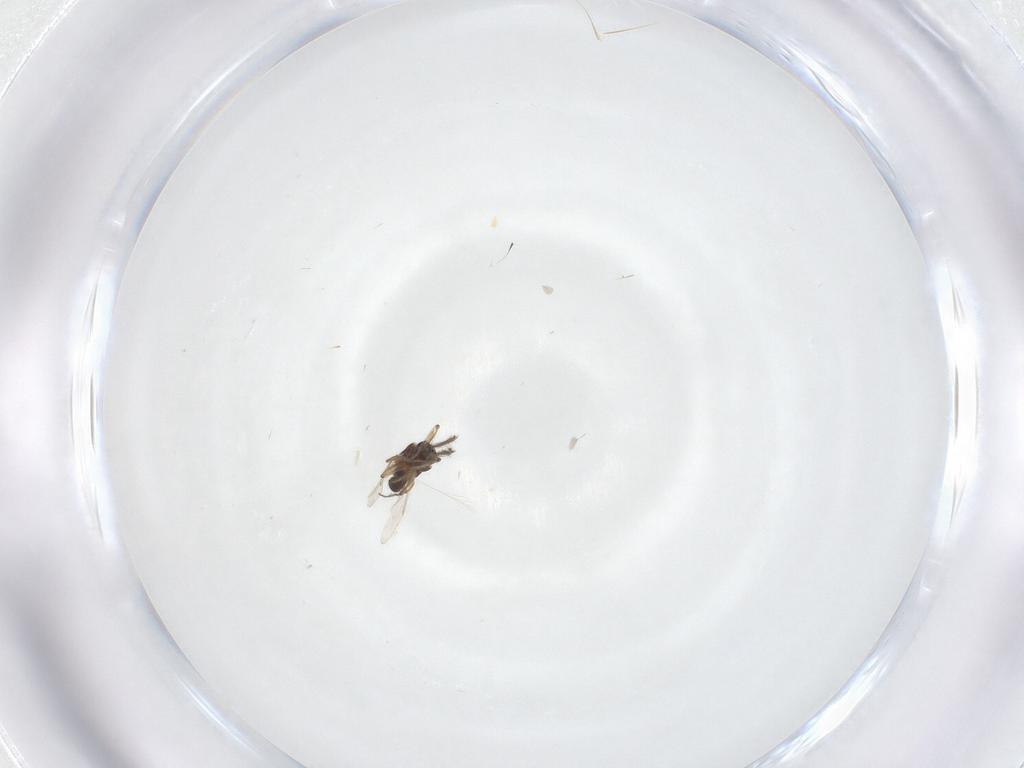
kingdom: Animalia
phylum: Arthropoda
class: Insecta
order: Diptera
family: Ceratopogonidae
